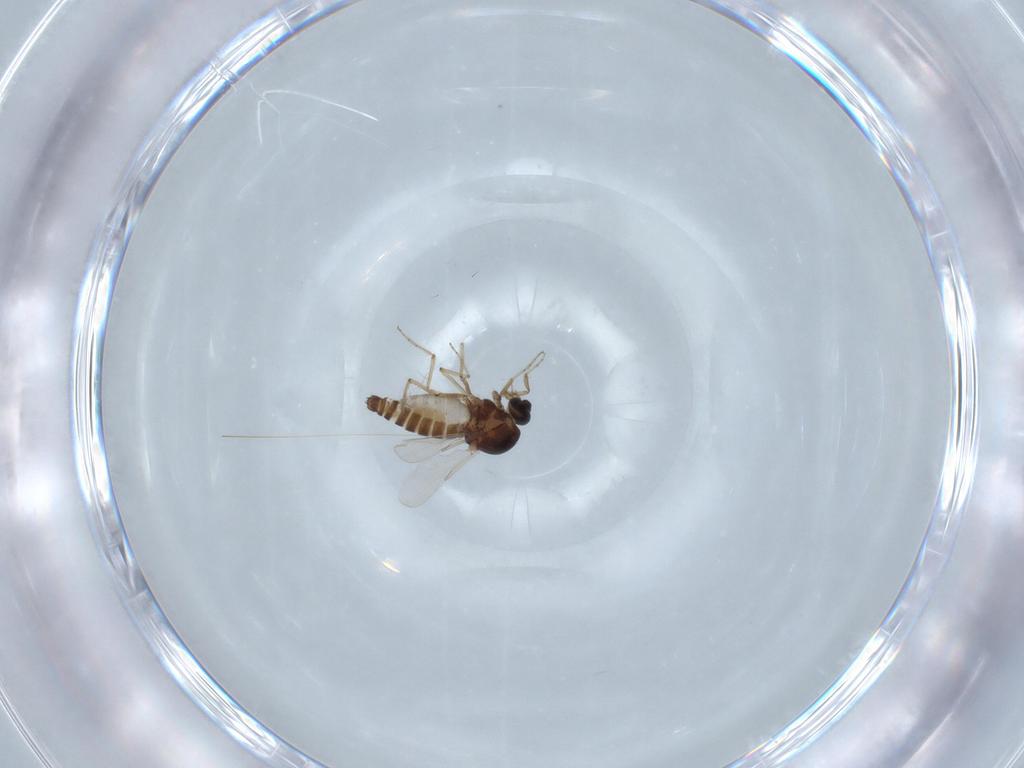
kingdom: Animalia
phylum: Arthropoda
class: Insecta
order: Diptera
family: Ceratopogonidae
